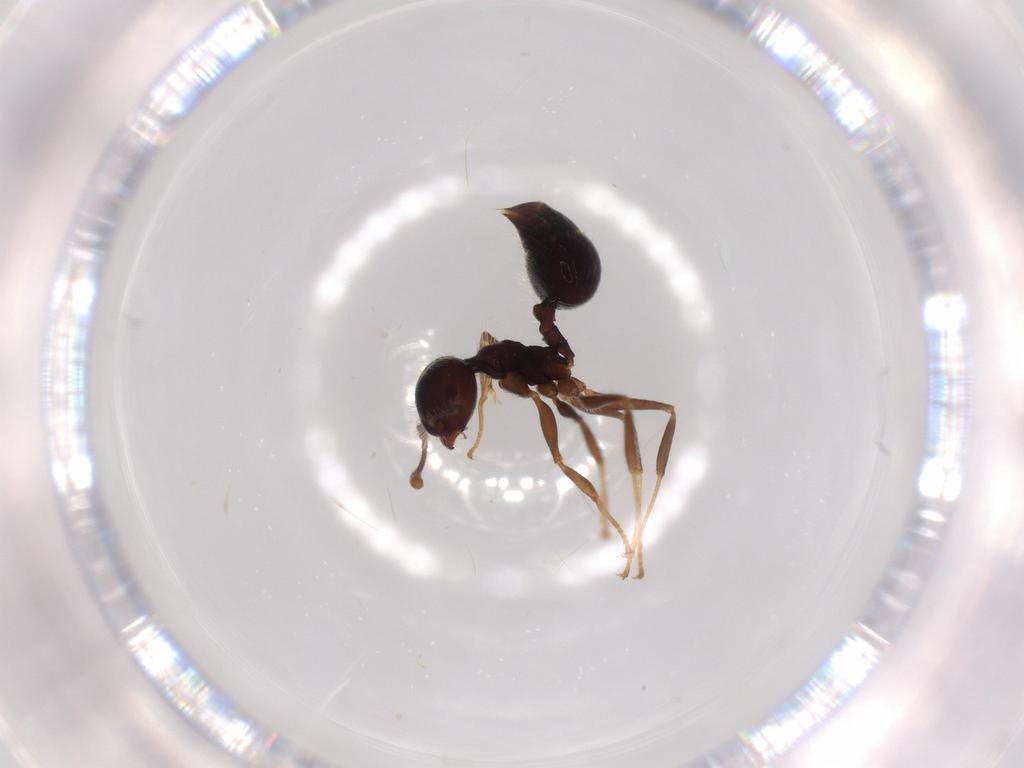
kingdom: Animalia
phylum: Arthropoda
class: Insecta
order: Hymenoptera
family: Formicidae
